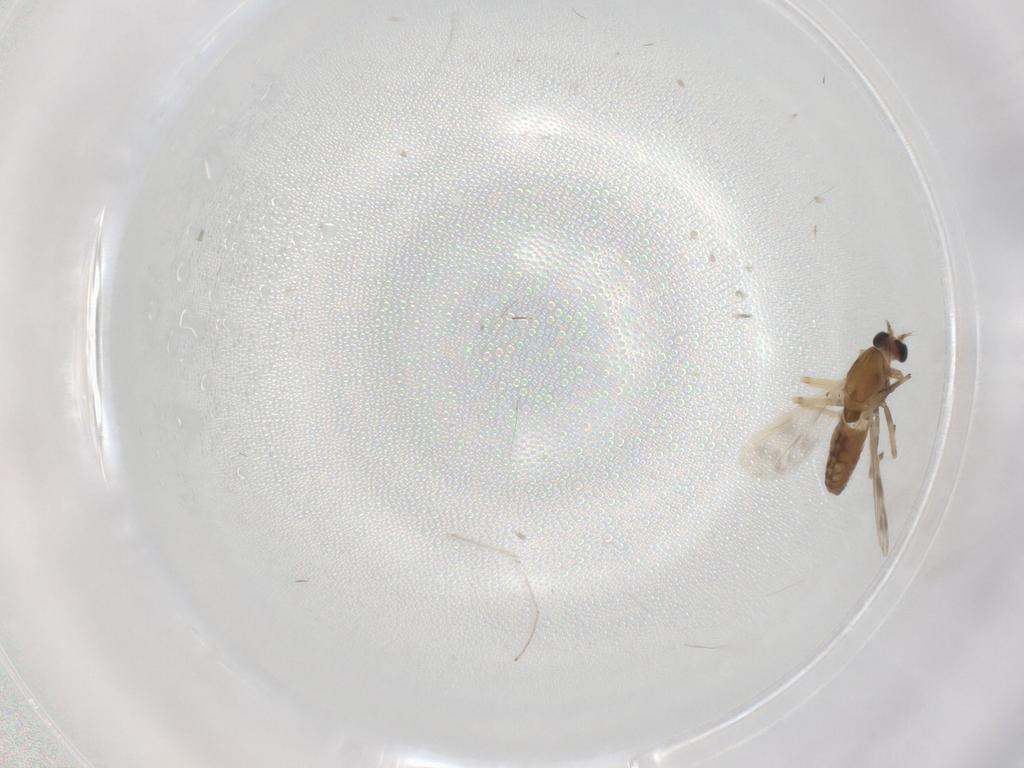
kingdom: Animalia
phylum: Arthropoda
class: Insecta
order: Diptera
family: Chironomidae
